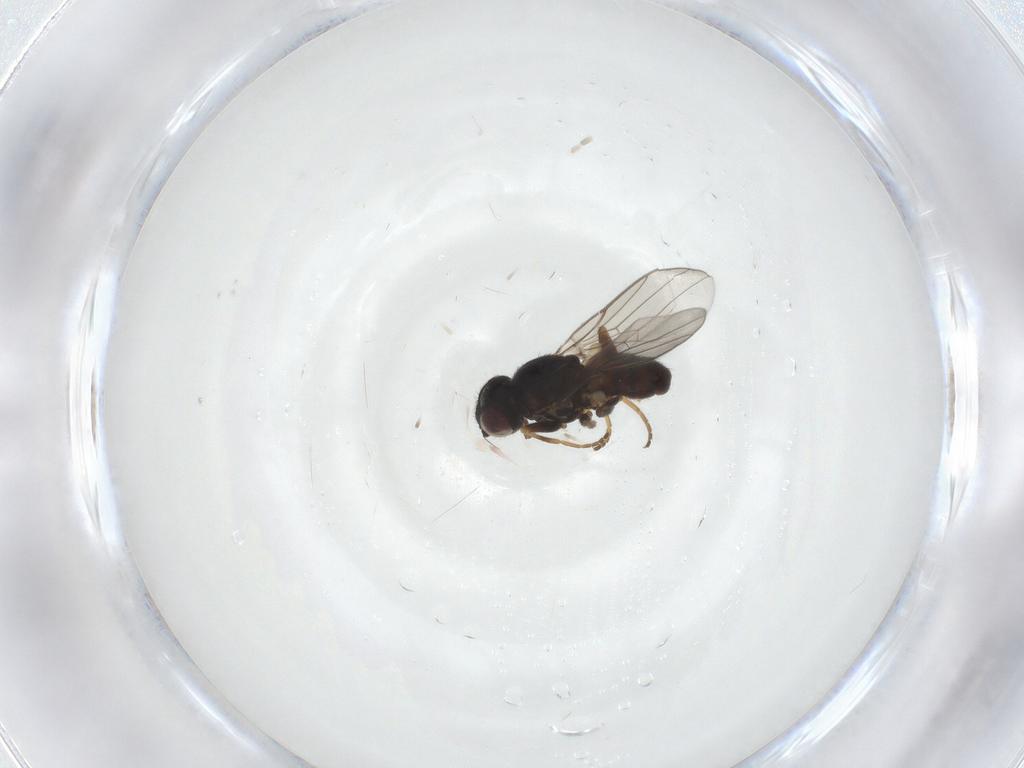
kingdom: Animalia
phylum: Arthropoda
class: Insecta
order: Diptera
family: Chloropidae
